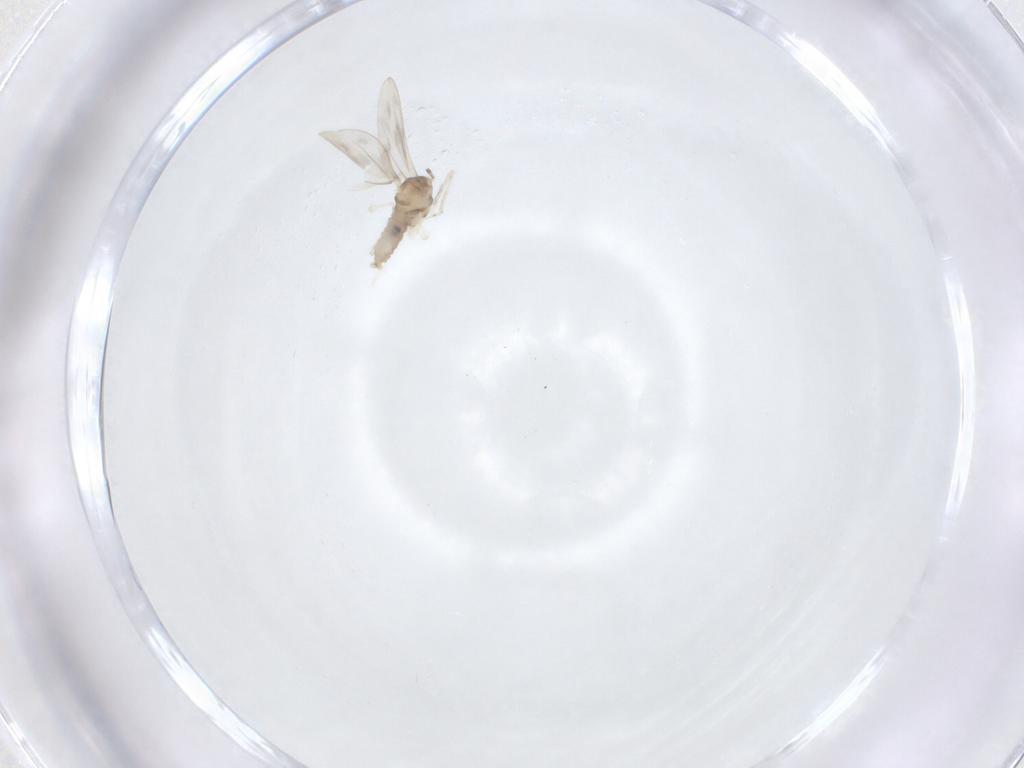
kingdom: Animalia
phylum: Arthropoda
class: Insecta
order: Diptera
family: Cecidomyiidae
